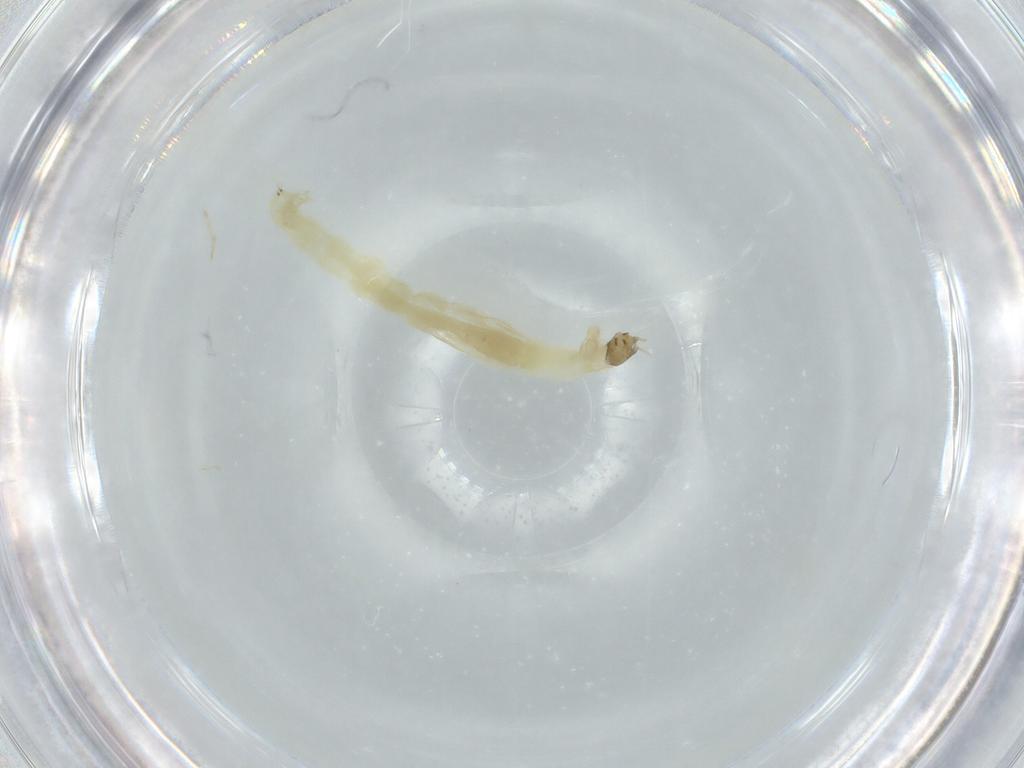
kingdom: Animalia
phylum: Arthropoda
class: Insecta
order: Diptera
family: Chironomidae
